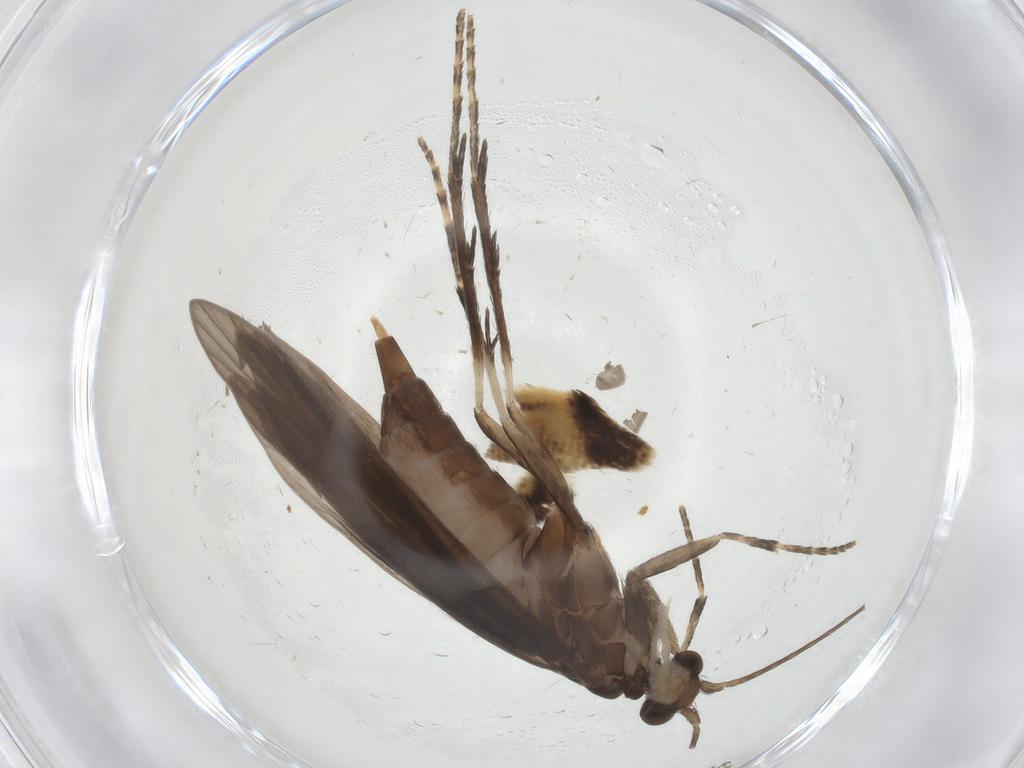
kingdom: Animalia
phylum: Arthropoda
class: Insecta
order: Trichoptera
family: Xiphocentronidae
